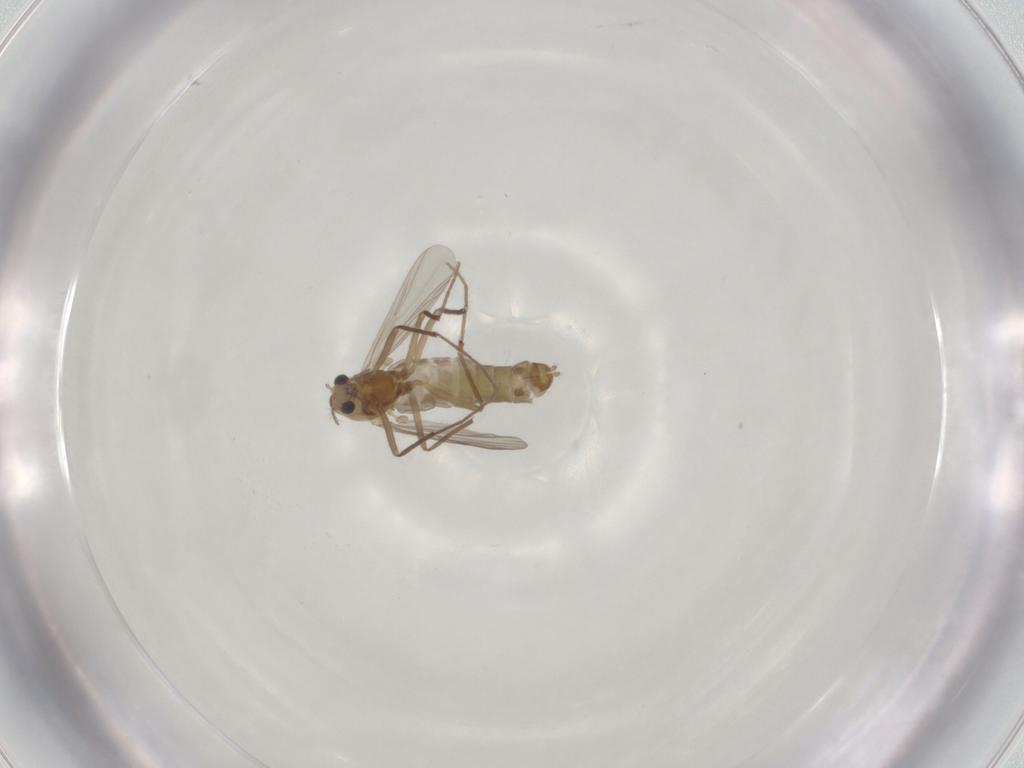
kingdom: Animalia
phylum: Arthropoda
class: Insecta
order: Diptera
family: Chironomidae
